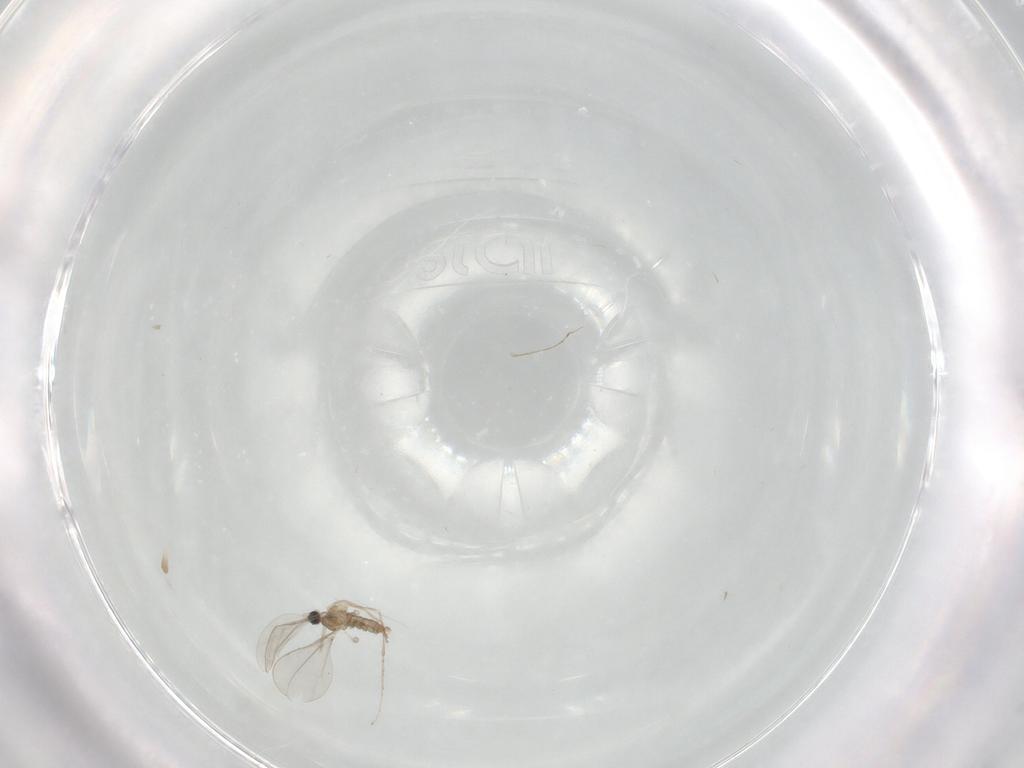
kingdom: Animalia
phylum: Arthropoda
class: Insecta
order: Diptera
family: Cecidomyiidae
